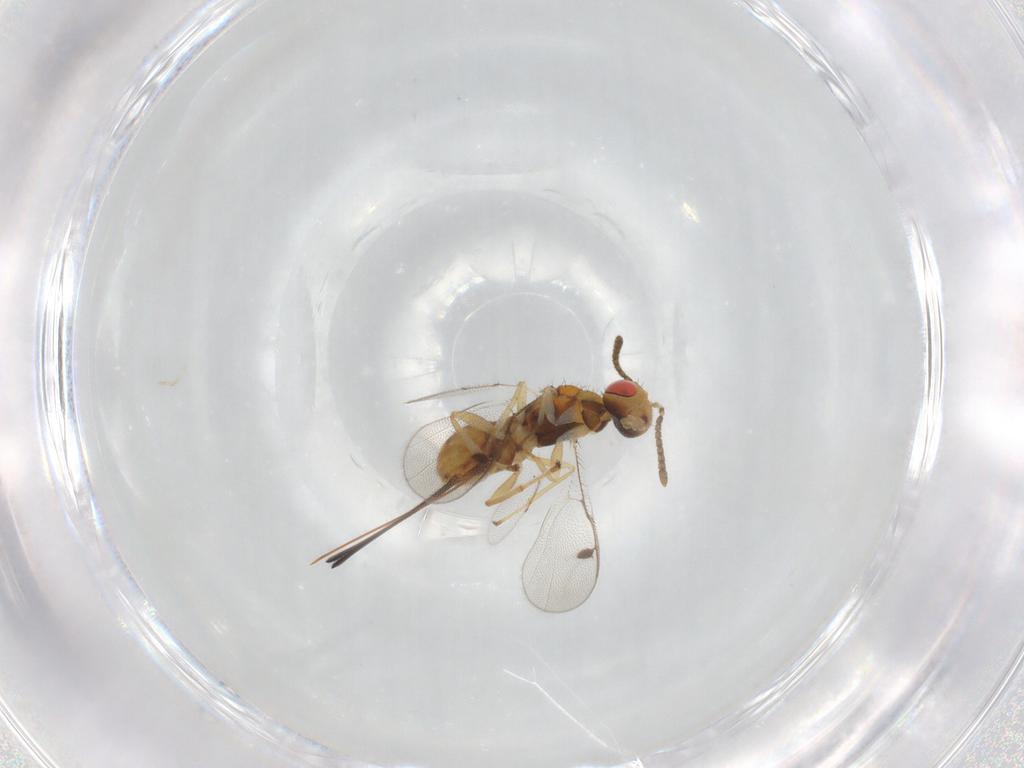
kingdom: Animalia
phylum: Arthropoda
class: Insecta
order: Hymenoptera
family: Megastigmidae
